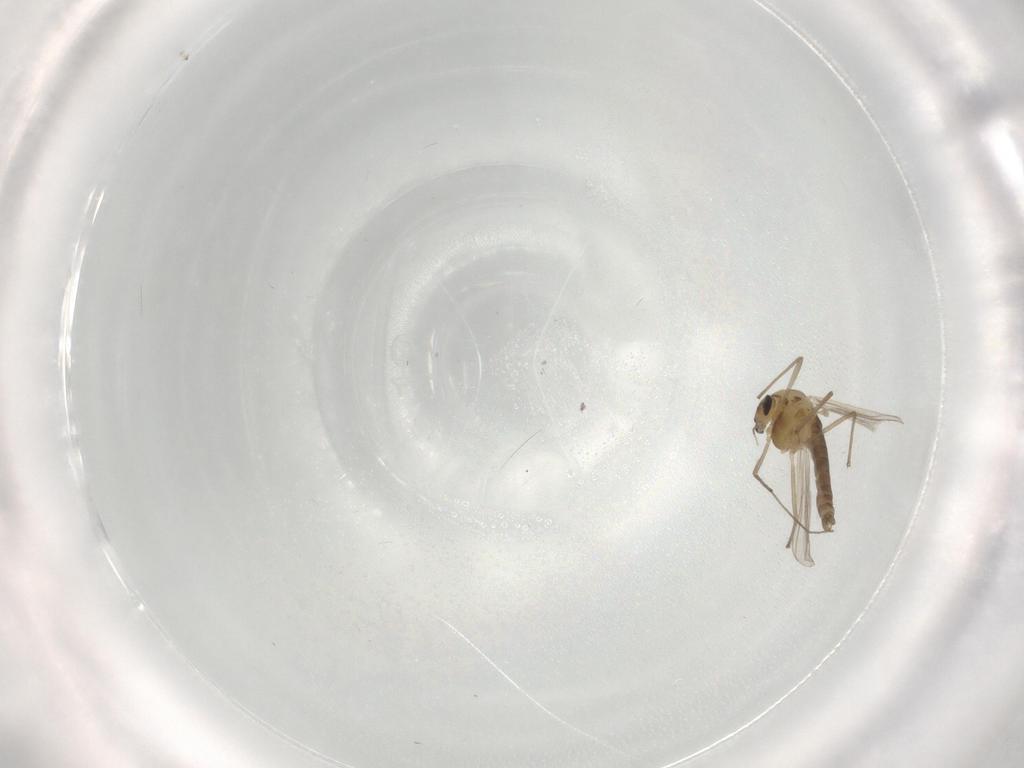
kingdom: Animalia
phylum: Arthropoda
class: Insecta
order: Diptera
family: Chironomidae
